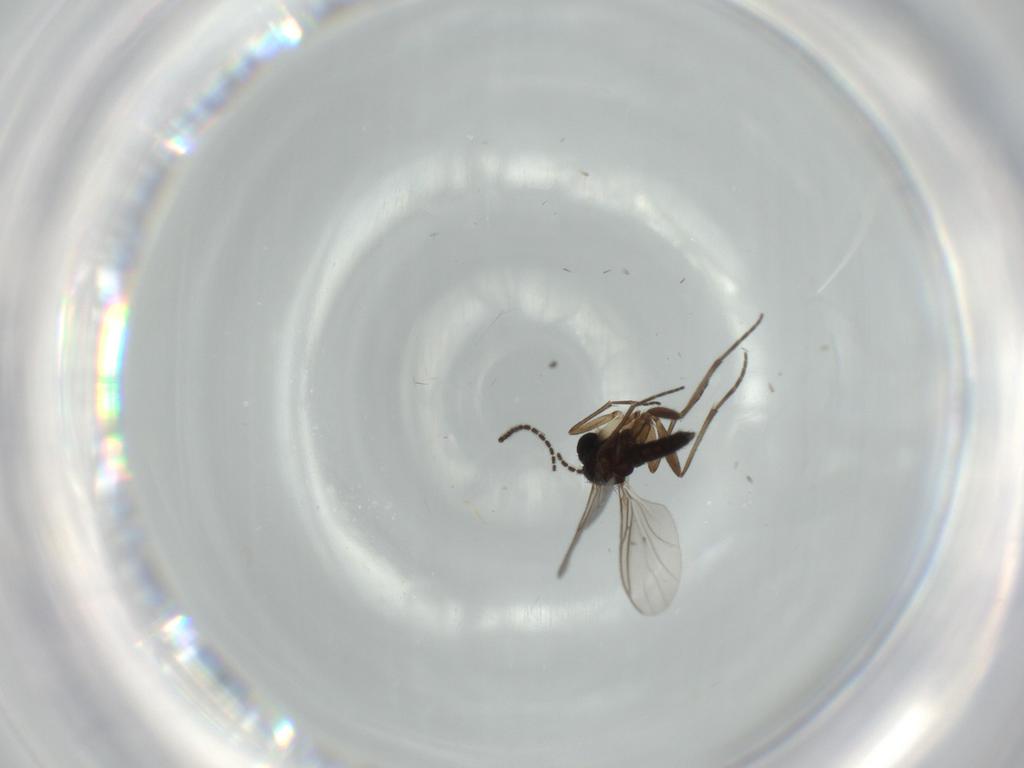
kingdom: Animalia
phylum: Arthropoda
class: Insecta
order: Diptera
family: Sciaridae
